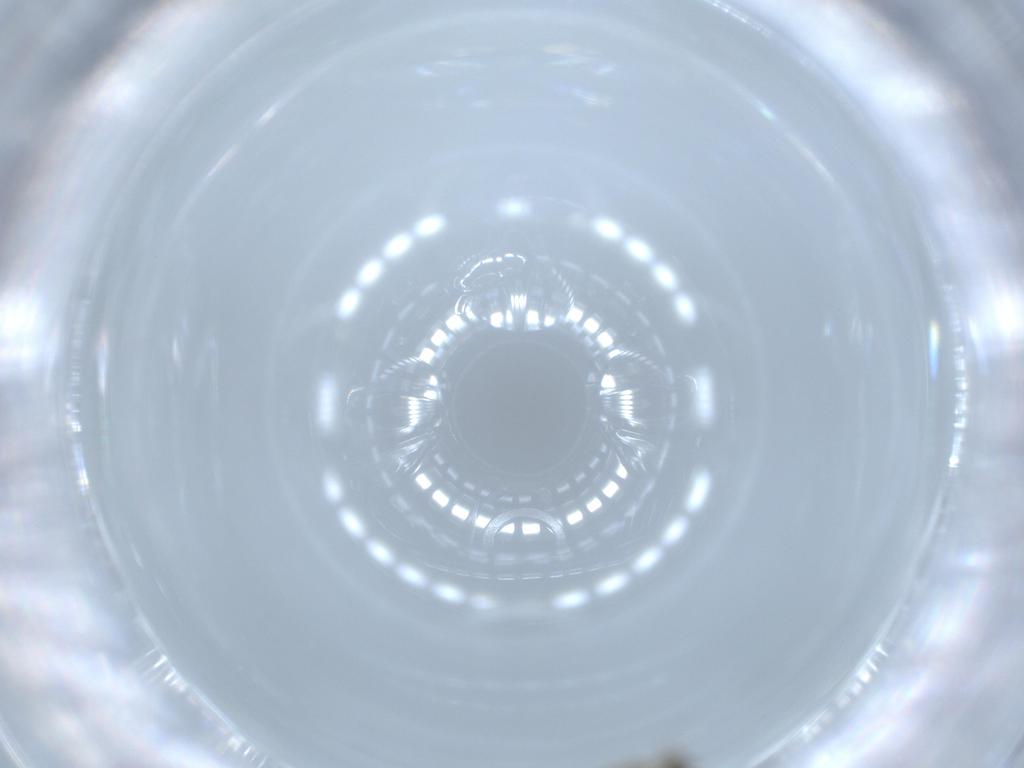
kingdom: Animalia
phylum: Arthropoda
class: Insecta
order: Diptera
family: Cecidomyiidae
